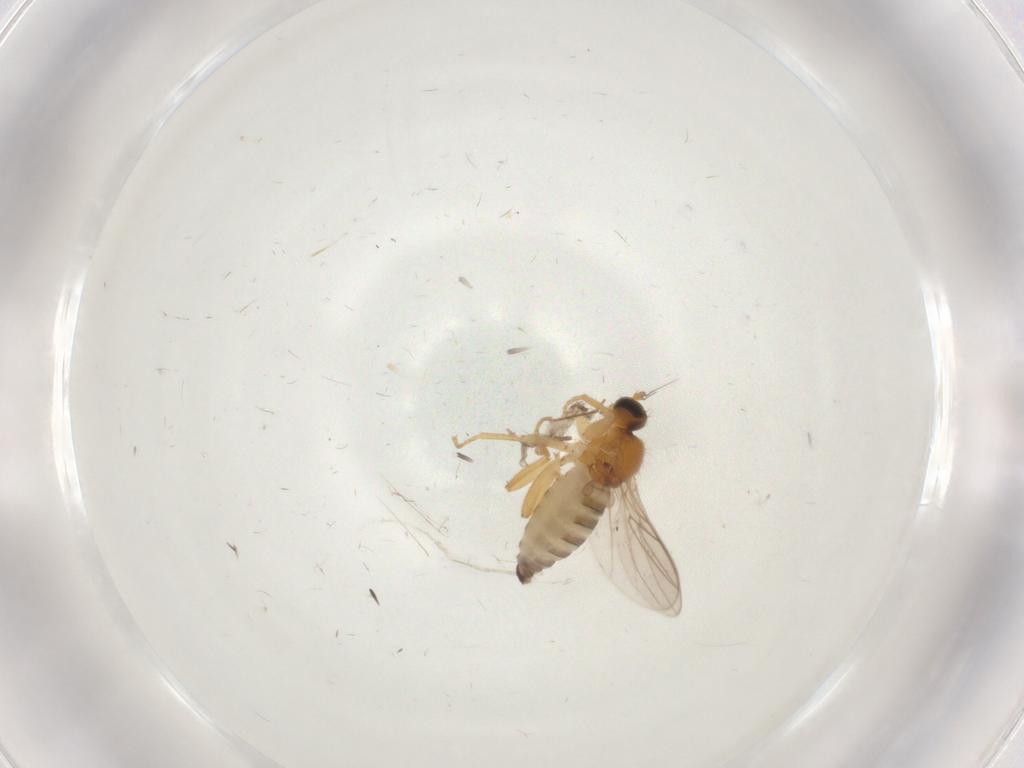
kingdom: Animalia
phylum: Arthropoda
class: Insecta
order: Diptera
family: Hybotidae
